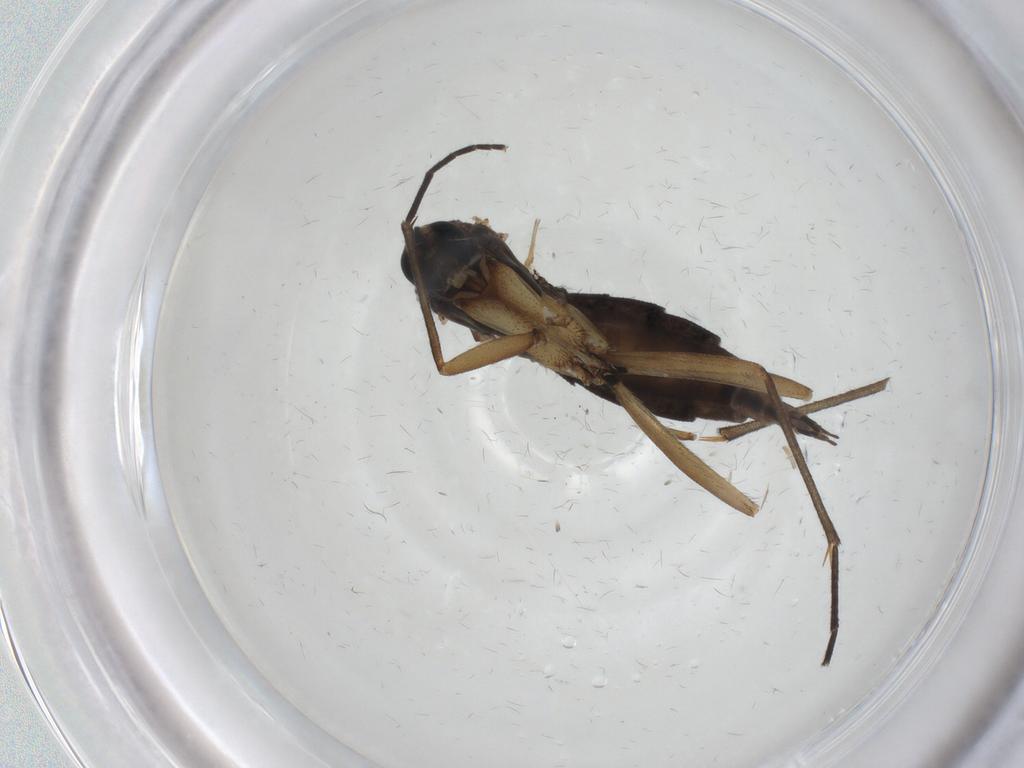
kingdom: Animalia
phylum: Arthropoda
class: Insecta
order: Diptera
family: Sciaridae
